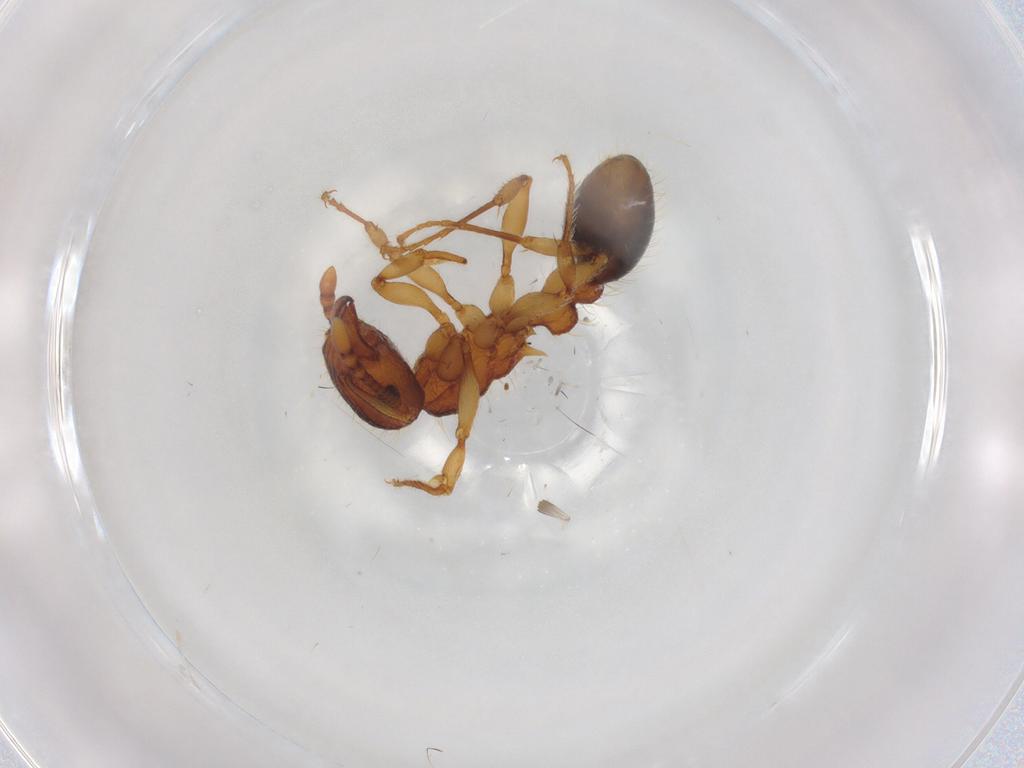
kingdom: Animalia
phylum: Arthropoda
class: Insecta
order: Hymenoptera
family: Formicidae
